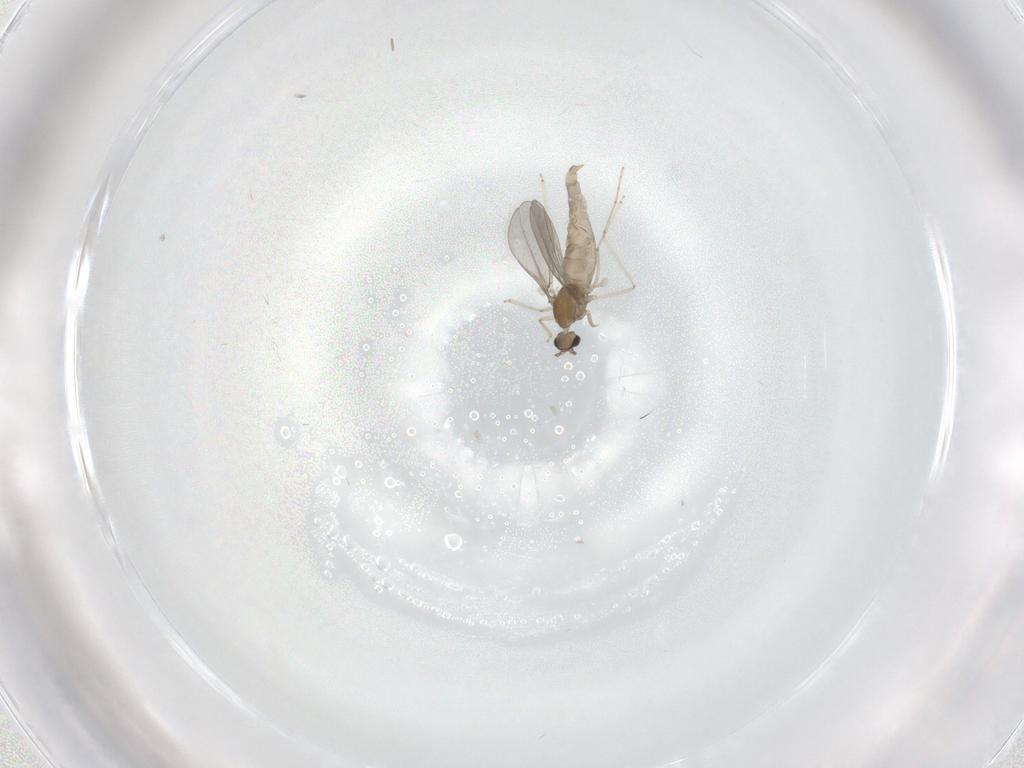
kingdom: Animalia
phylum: Arthropoda
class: Insecta
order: Diptera
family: Cecidomyiidae
